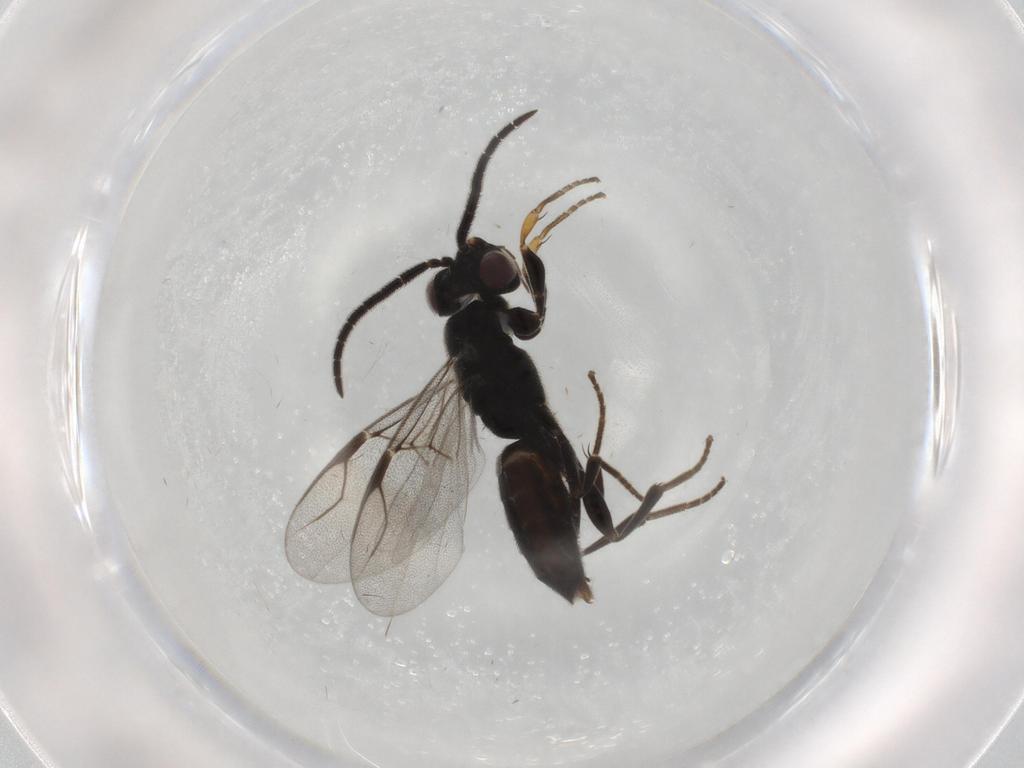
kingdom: Animalia
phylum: Arthropoda
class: Insecta
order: Hymenoptera
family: Dryinidae
